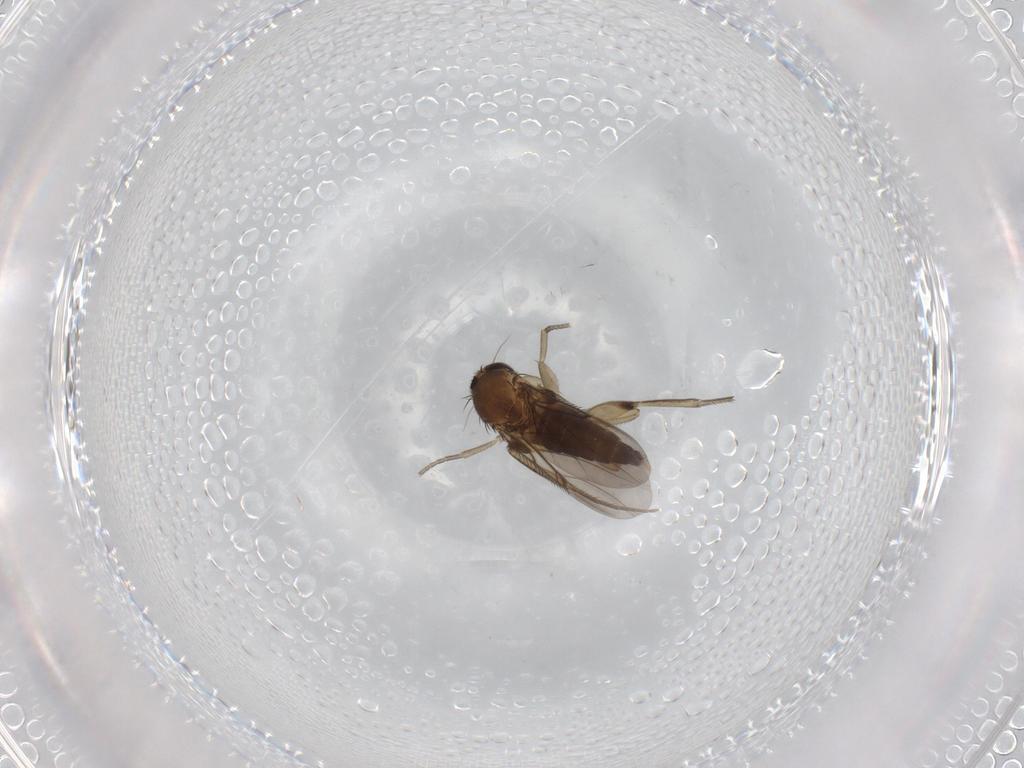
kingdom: Animalia
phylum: Arthropoda
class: Insecta
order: Diptera
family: Phoridae
